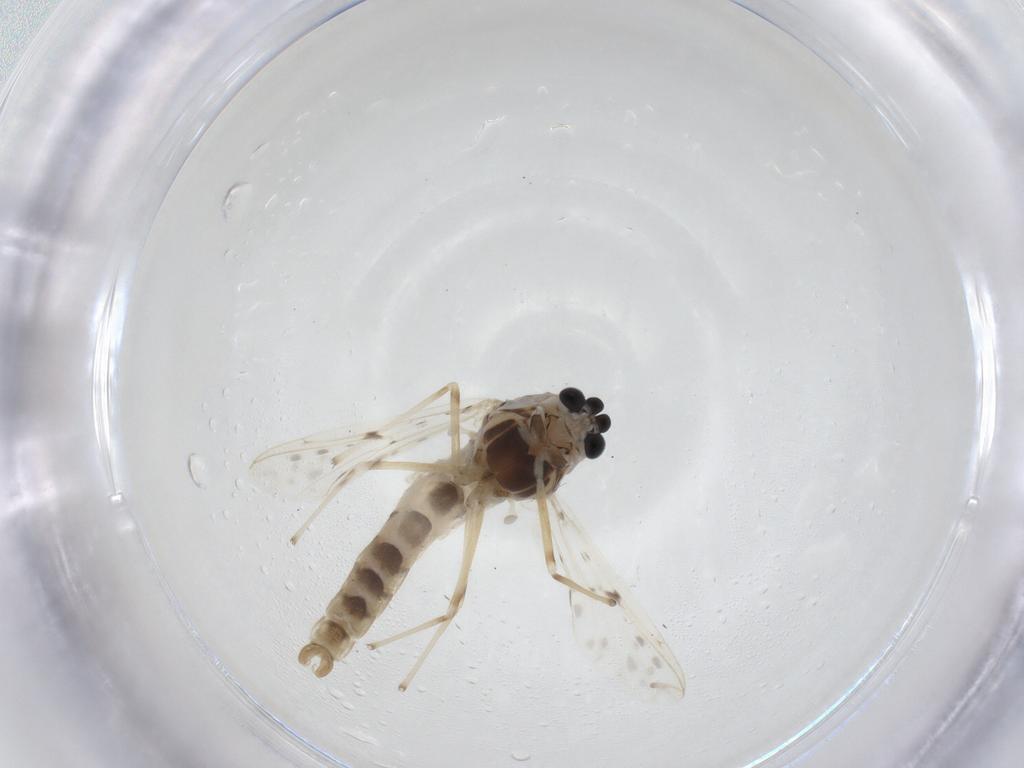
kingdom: Animalia
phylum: Arthropoda
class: Insecta
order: Diptera
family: Chironomidae
